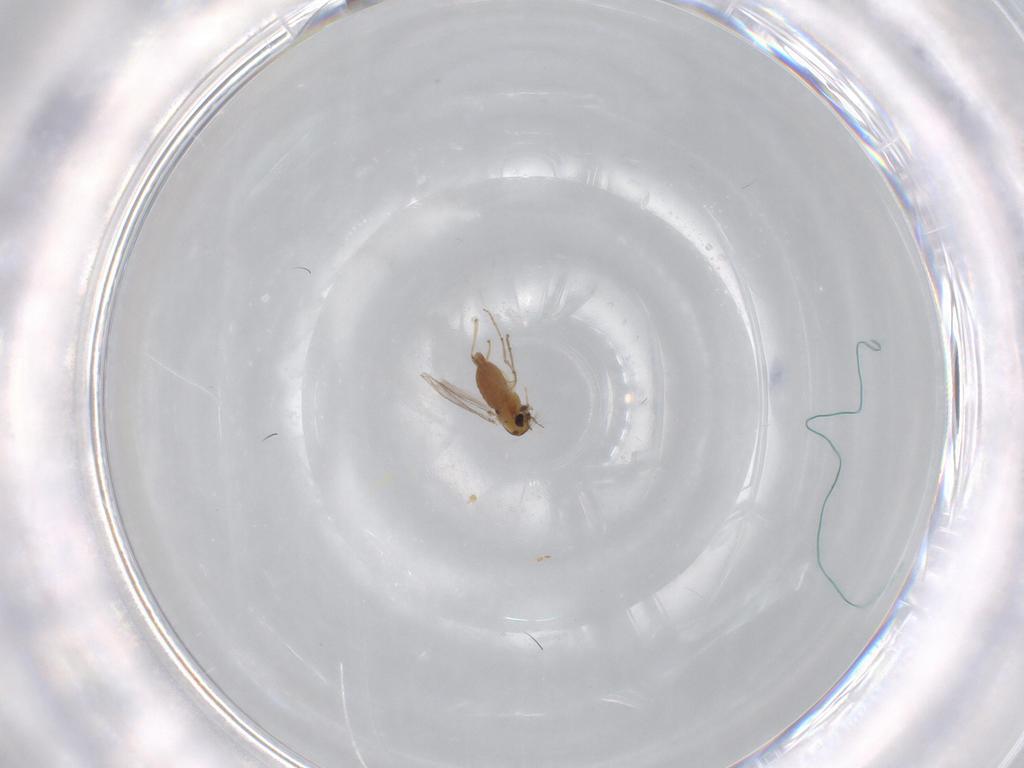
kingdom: Animalia
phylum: Arthropoda
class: Insecta
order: Diptera
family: Chironomidae
